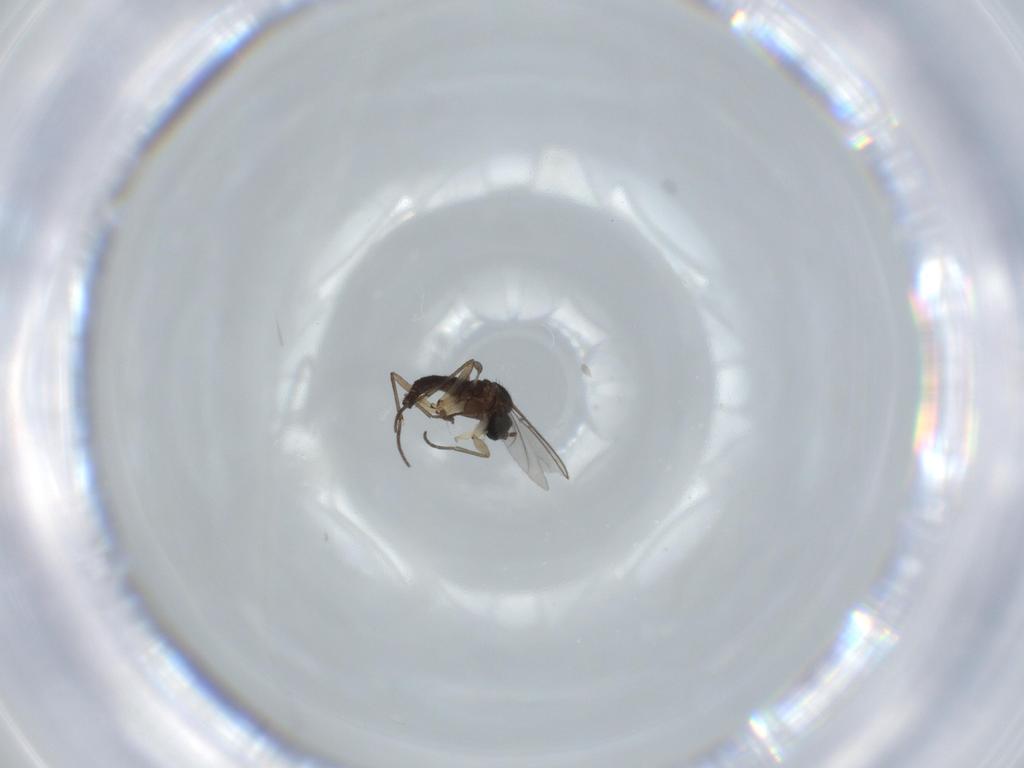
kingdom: Animalia
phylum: Arthropoda
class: Insecta
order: Diptera
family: Sciaridae
